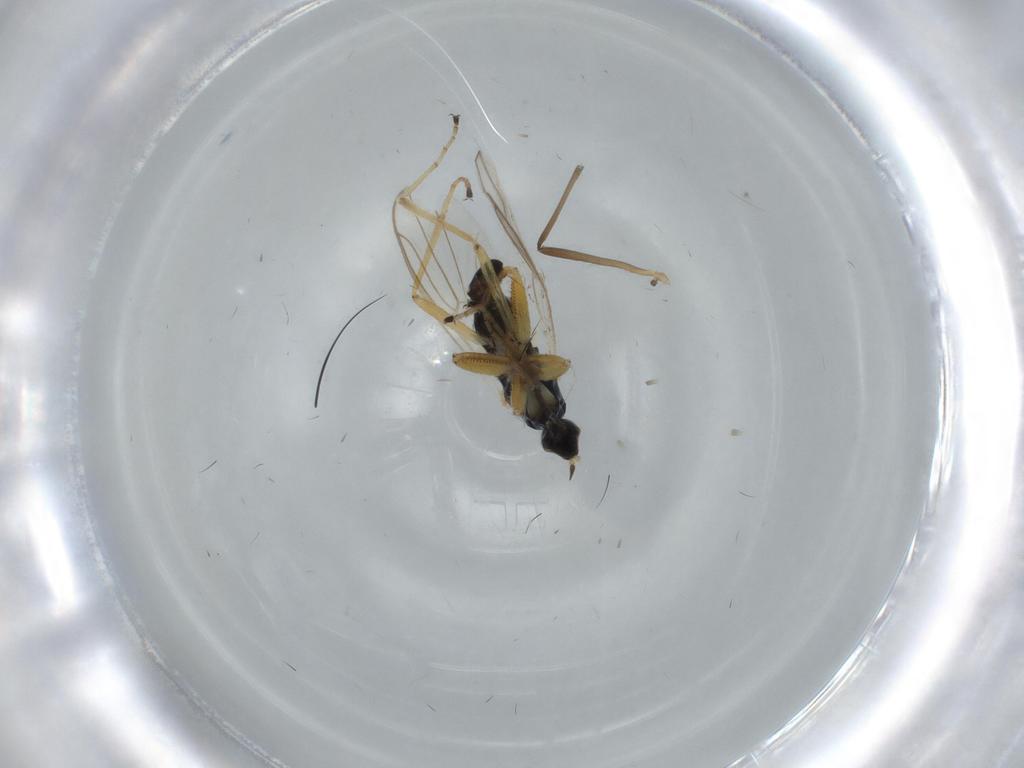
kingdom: Animalia
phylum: Arthropoda
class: Insecta
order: Diptera
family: Hybotidae
